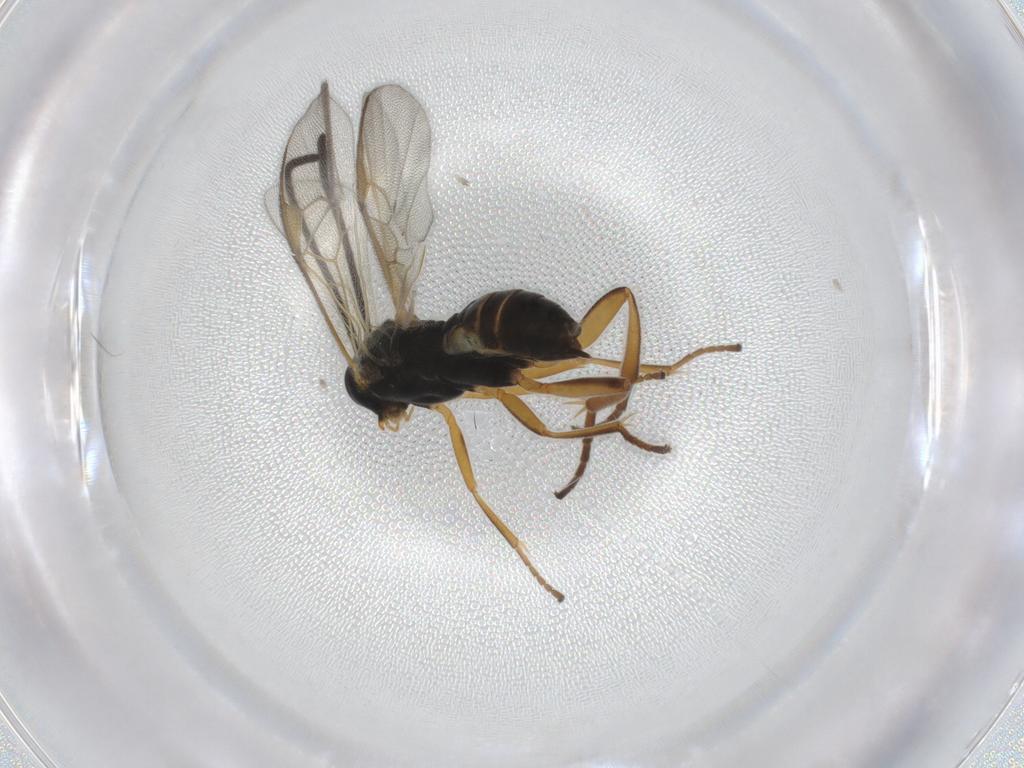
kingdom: Animalia
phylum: Arthropoda
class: Insecta
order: Hymenoptera
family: Braconidae
